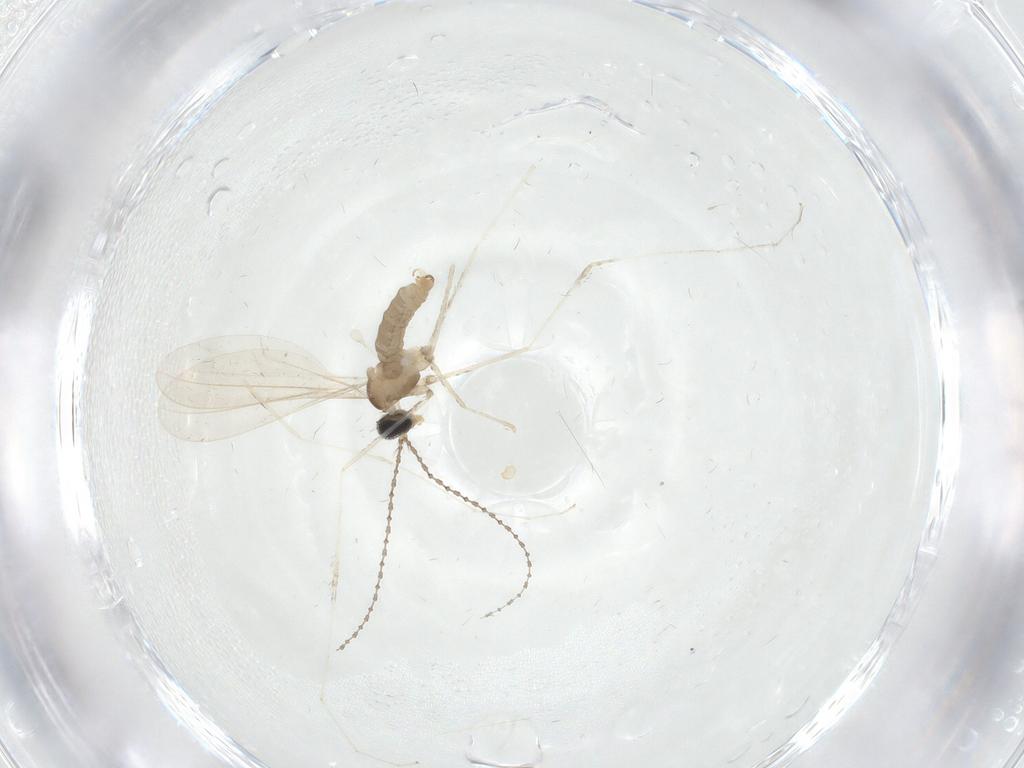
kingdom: Animalia
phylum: Arthropoda
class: Insecta
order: Diptera
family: Cecidomyiidae
